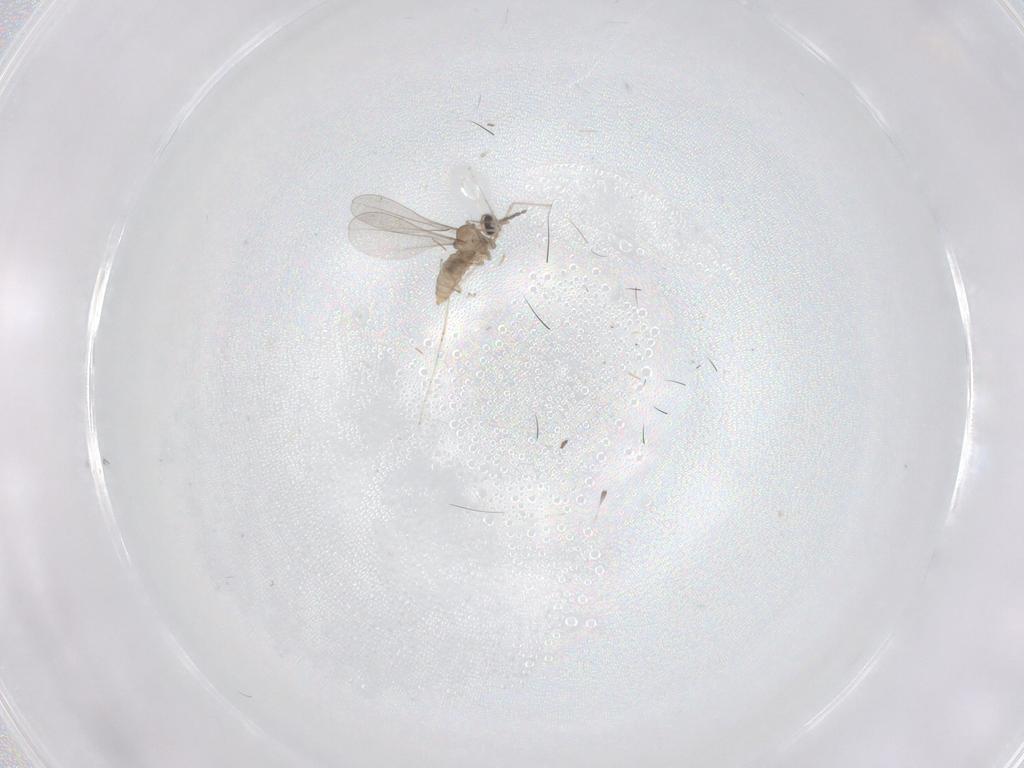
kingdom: Animalia
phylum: Arthropoda
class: Insecta
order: Diptera
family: Cecidomyiidae
